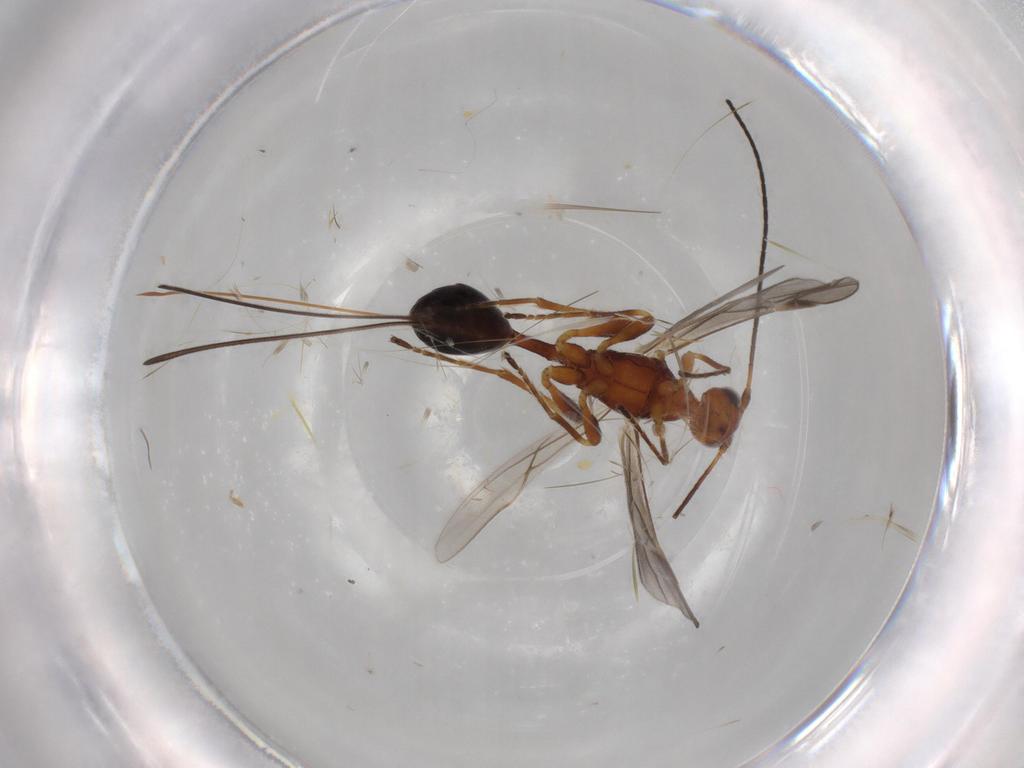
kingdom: Animalia
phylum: Arthropoda
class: Insecta
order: Hymenoptera
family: Braconidae
